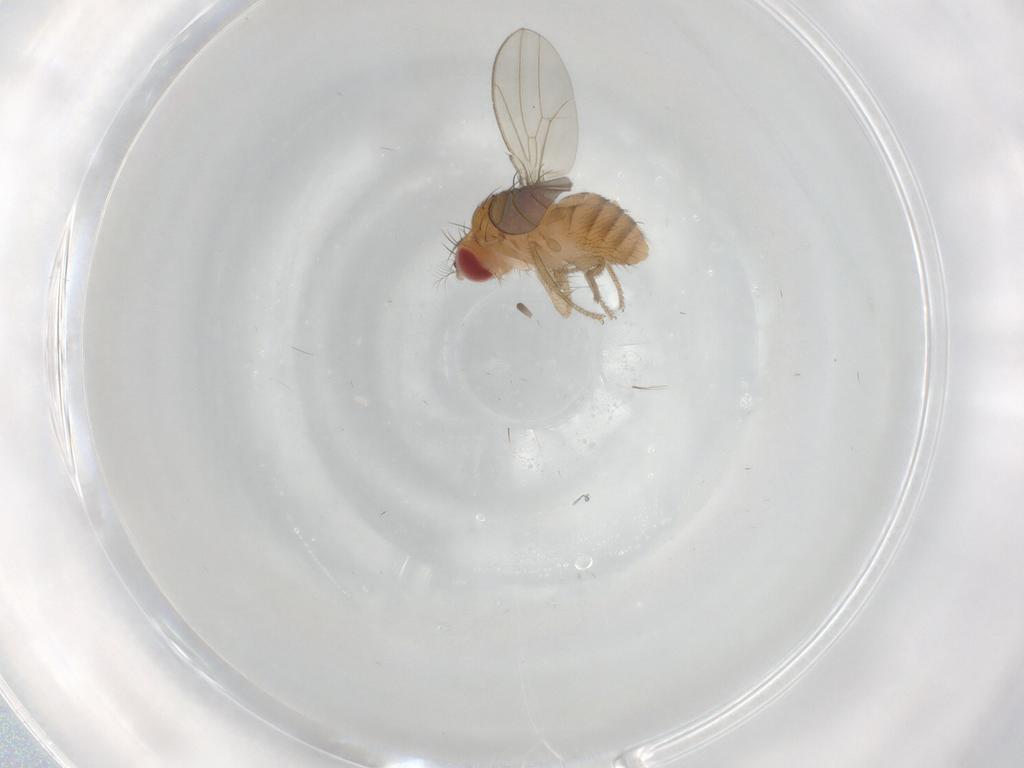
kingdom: Animalia
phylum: Arthropoda
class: Insecta
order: Diptera
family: Drosophilidae
